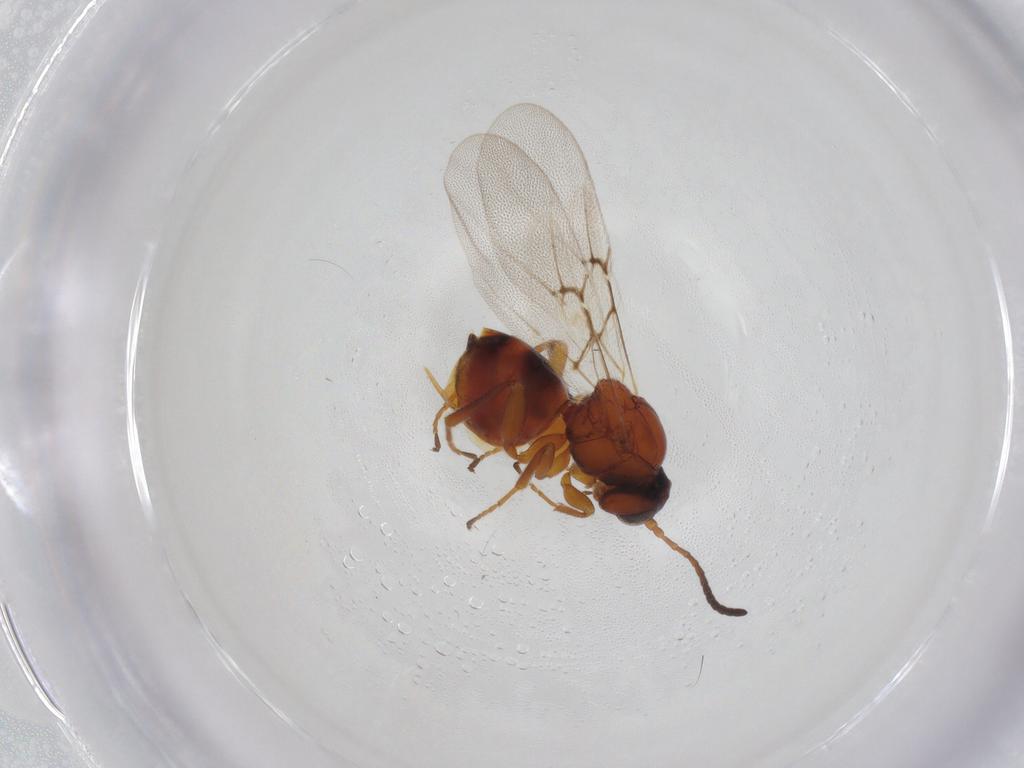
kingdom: Animalia
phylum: Arthropoda
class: Insecta
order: Hymenoptera
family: Cynipidae
